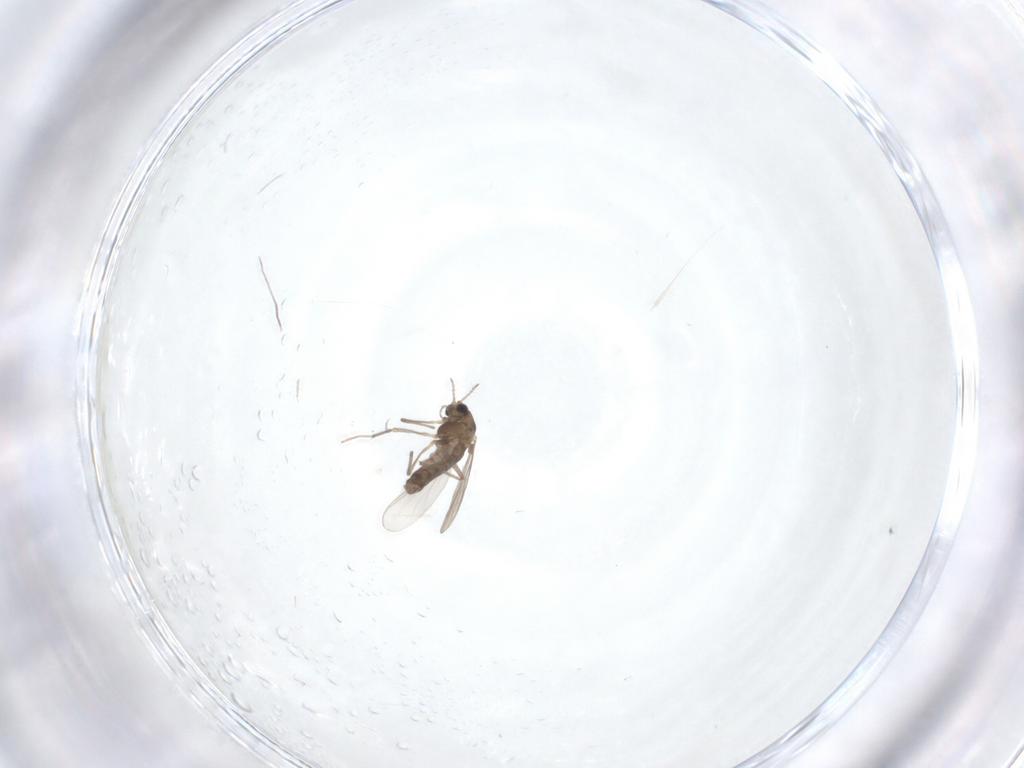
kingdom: Animalia
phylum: Arthropoda
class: Insecta
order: Diptera
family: Chironomidae
